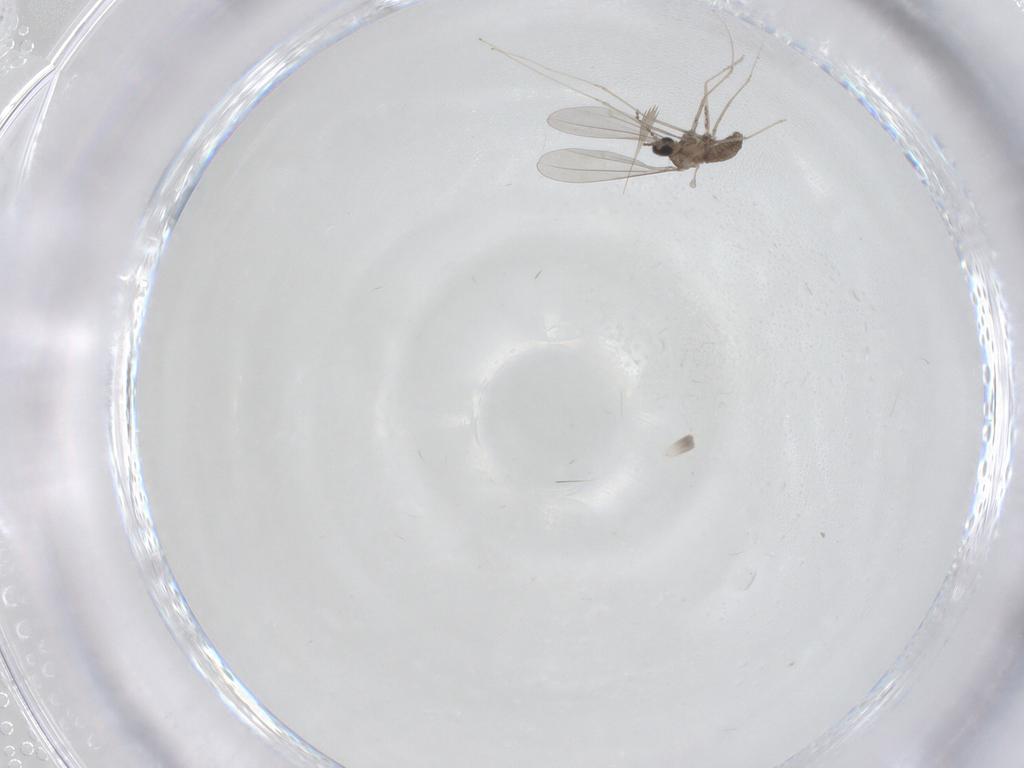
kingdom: Animalia
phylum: Arthropoda
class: Insecta
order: Diptera
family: Cecidomyiidae
